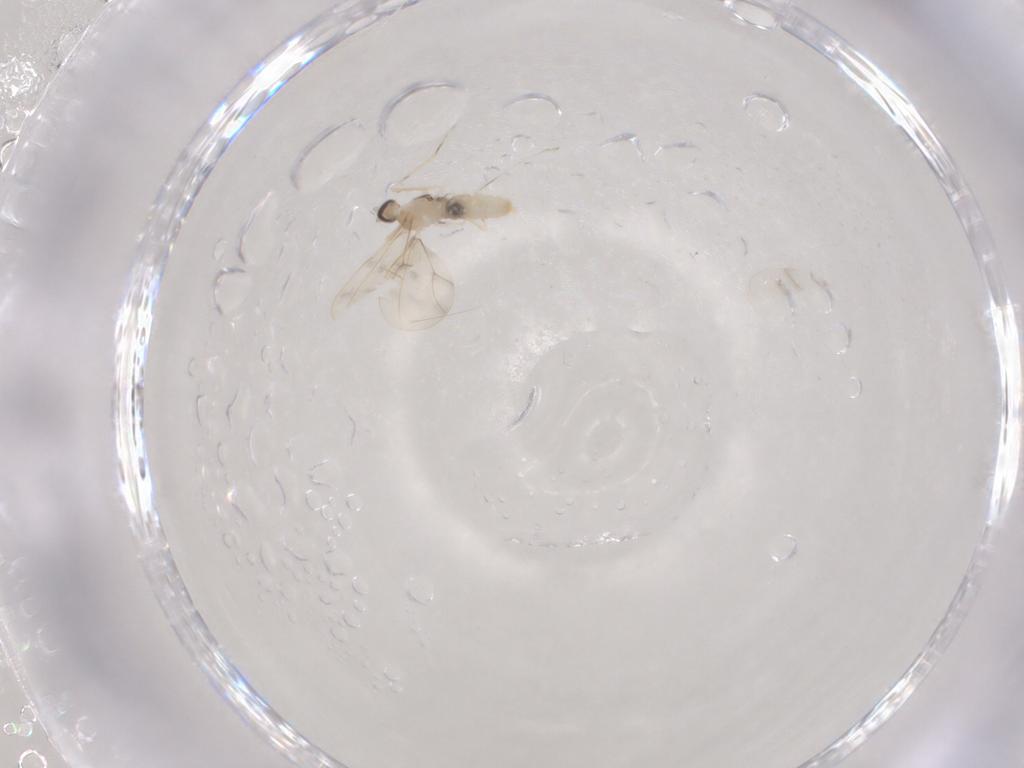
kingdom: Animalia
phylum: Arthropoda
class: Insecta
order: Diptera
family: Cecidomyiidae
